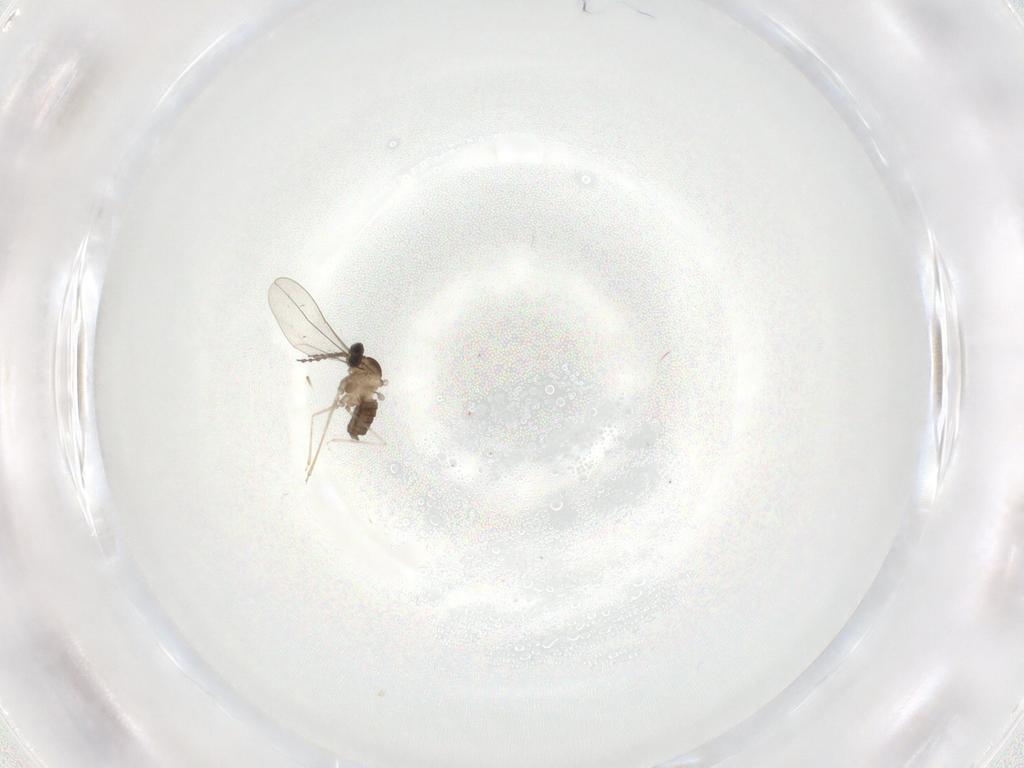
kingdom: Animalia
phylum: Arthropoda
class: Insecta
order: Diptera
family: Cecidomyiidae
